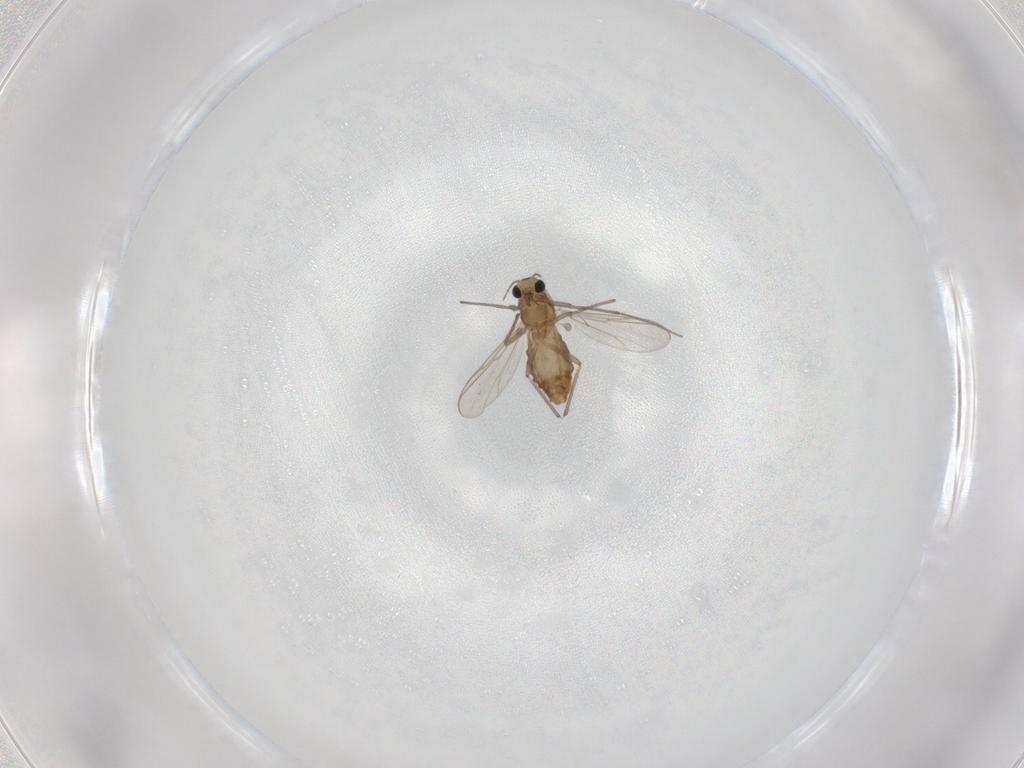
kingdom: Animalia
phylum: Arthropoda
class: Insecta
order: Diptera
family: Chironomidae
